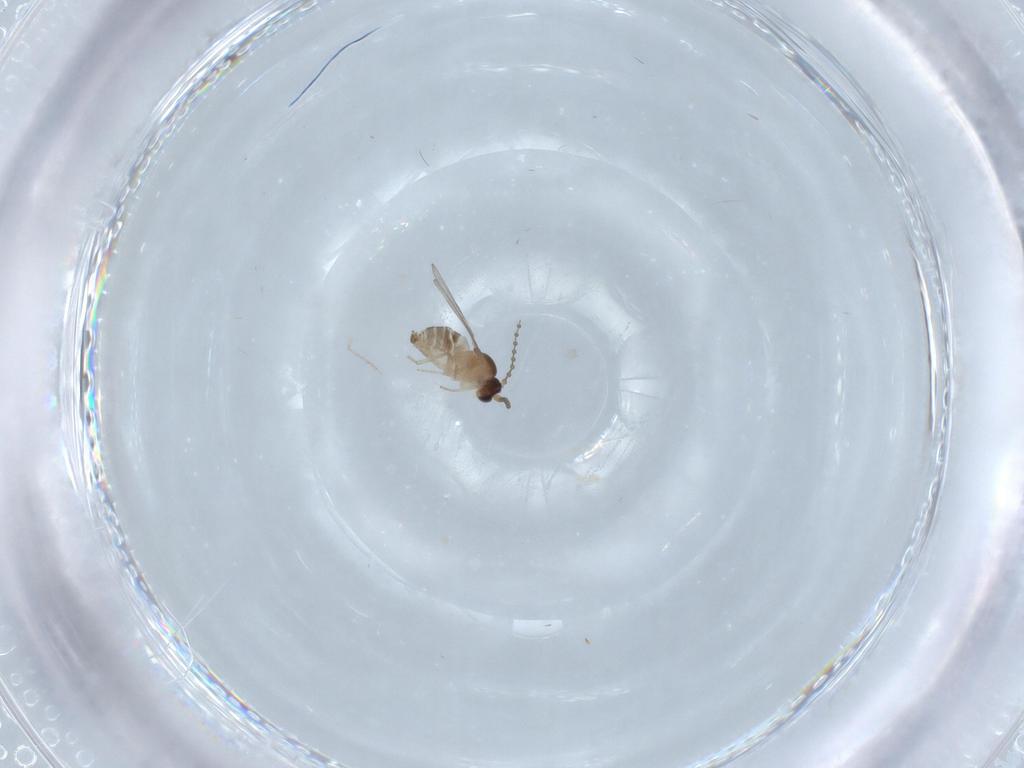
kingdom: Animalia
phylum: Arthropoda
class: Insecta
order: Diptera
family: Cecidomyiidae
